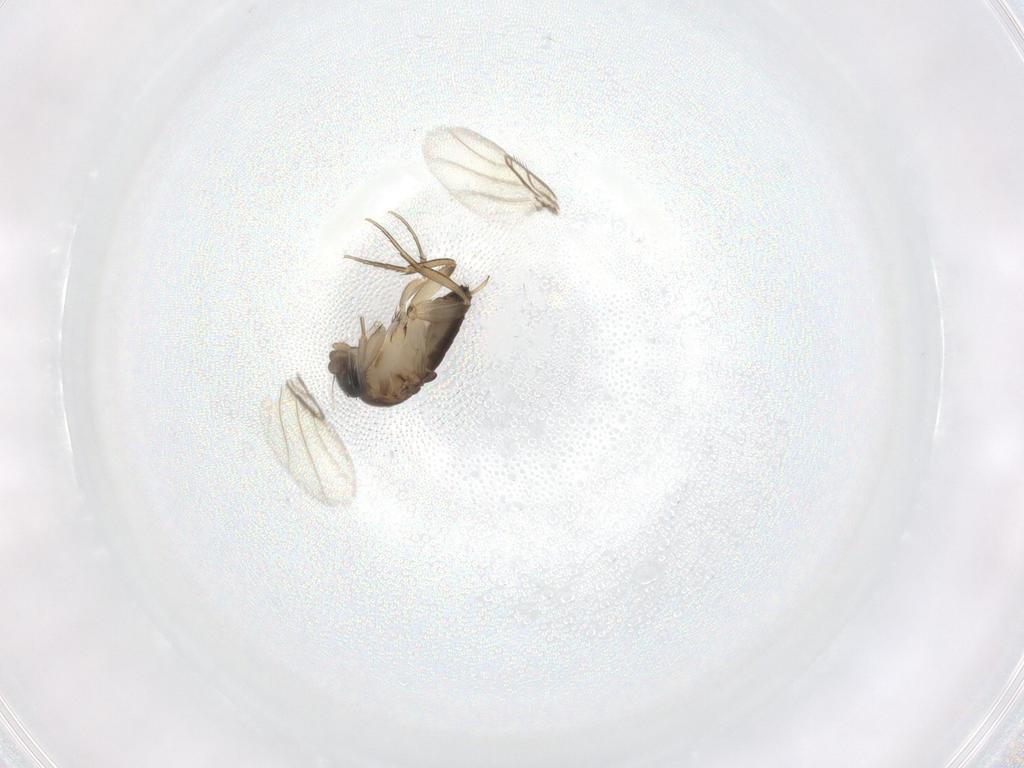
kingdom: Animalia
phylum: Arthropoda
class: Insecta
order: Diptera
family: Phoridae
